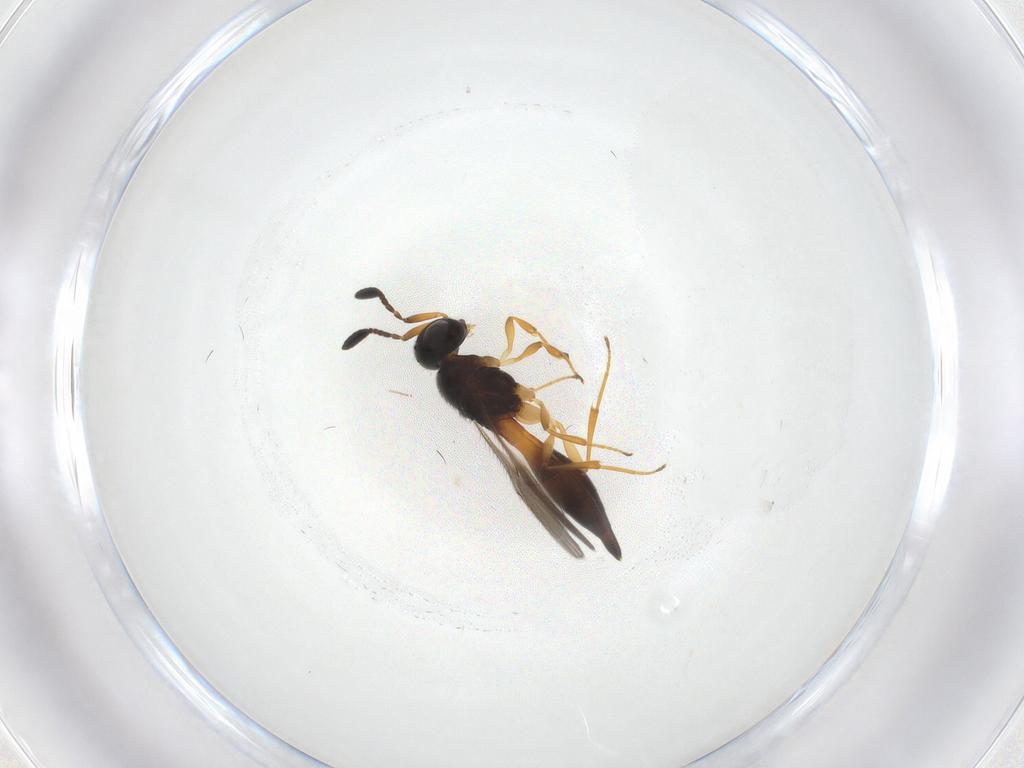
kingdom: Animalia
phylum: Arthropoda
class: Insecta
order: Hymenoptera
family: Scelionidae
